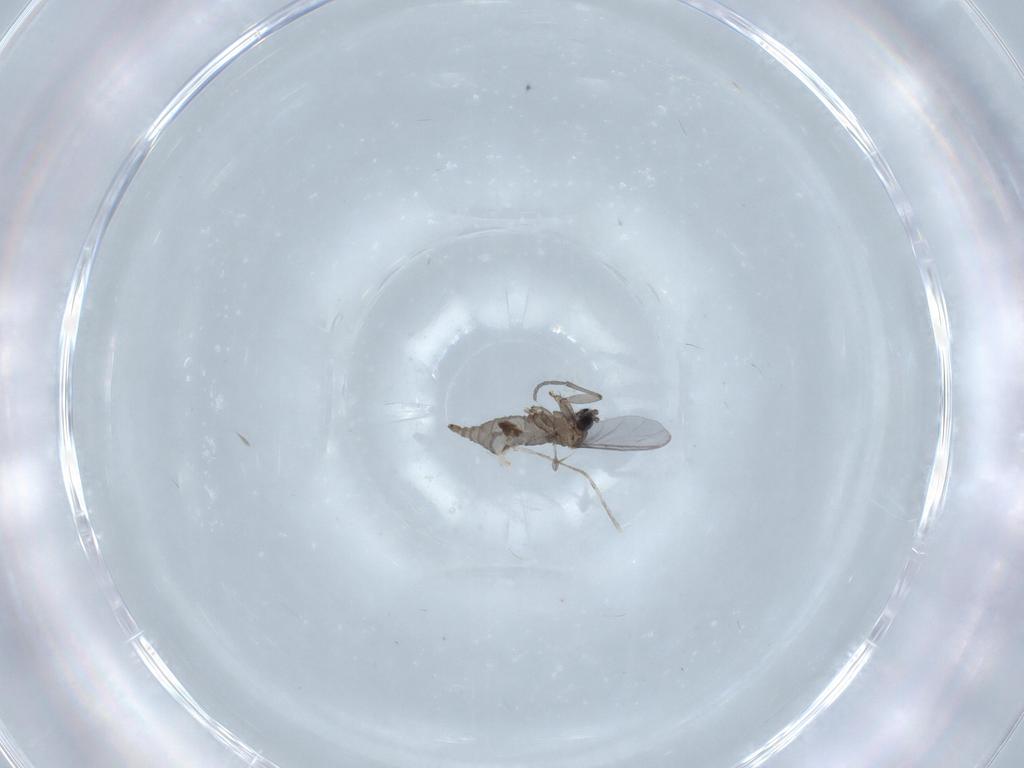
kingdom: Animalia
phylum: Arthropoda
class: Insecta
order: Diptera
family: Sciaridae
